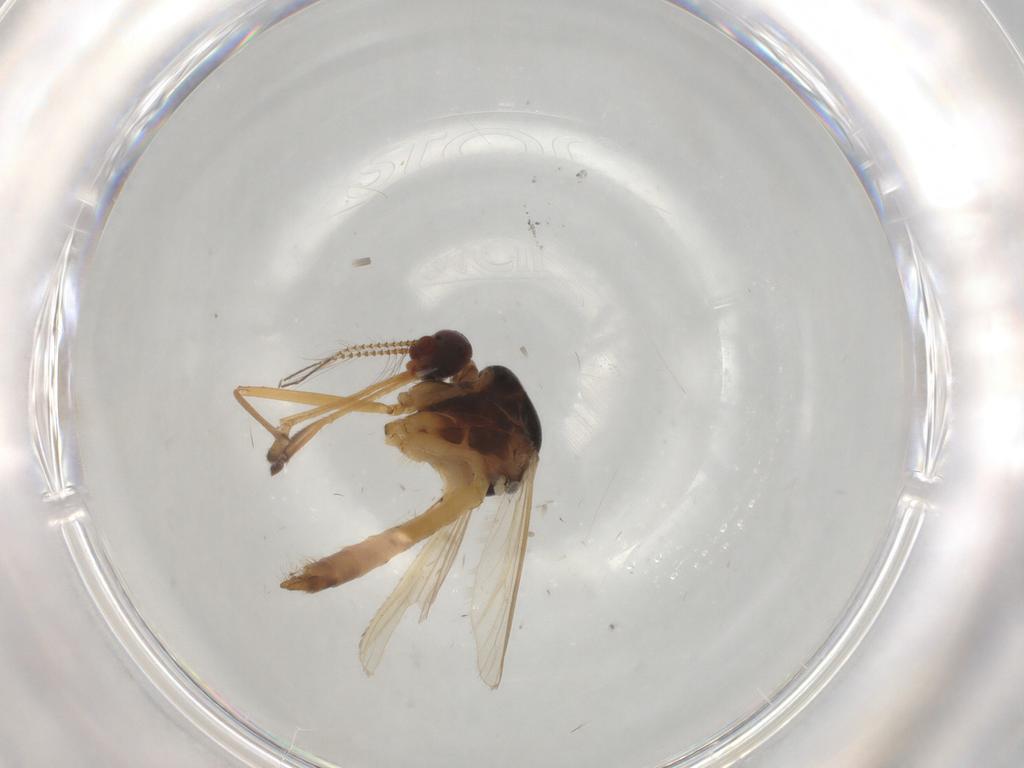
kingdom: Animalia
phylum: Arthropoda
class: Insecta
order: Diptera
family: Culicidae
